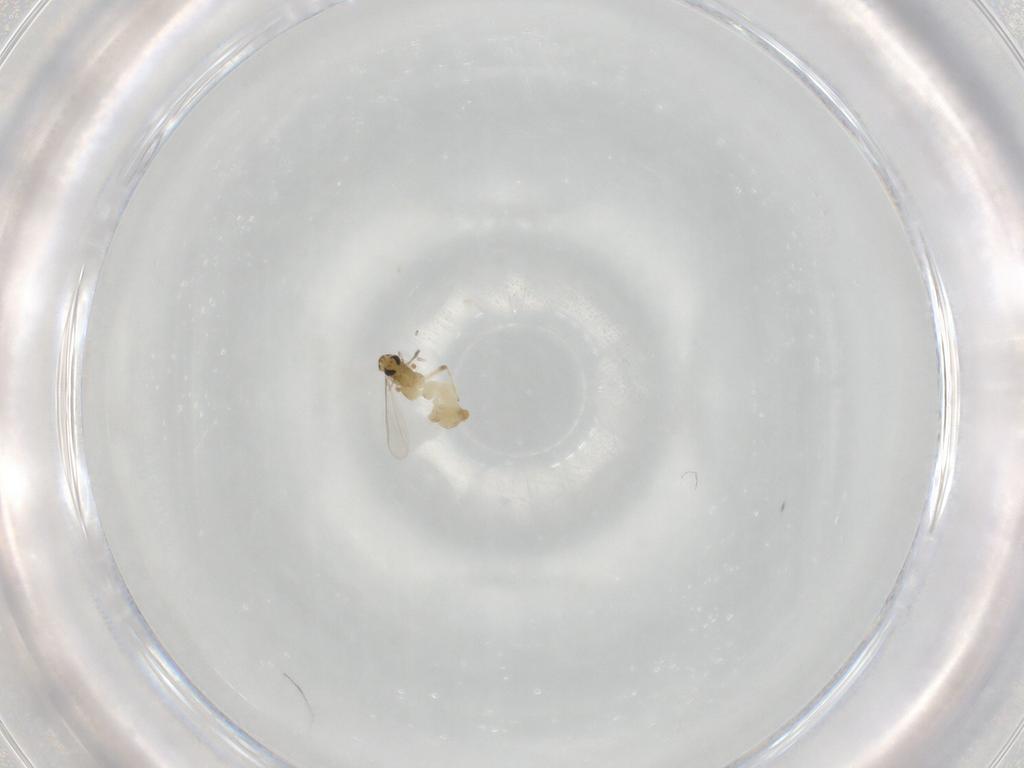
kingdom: Animalia
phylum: Arthropoda
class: Insecta
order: Diptera
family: Chironomidae
